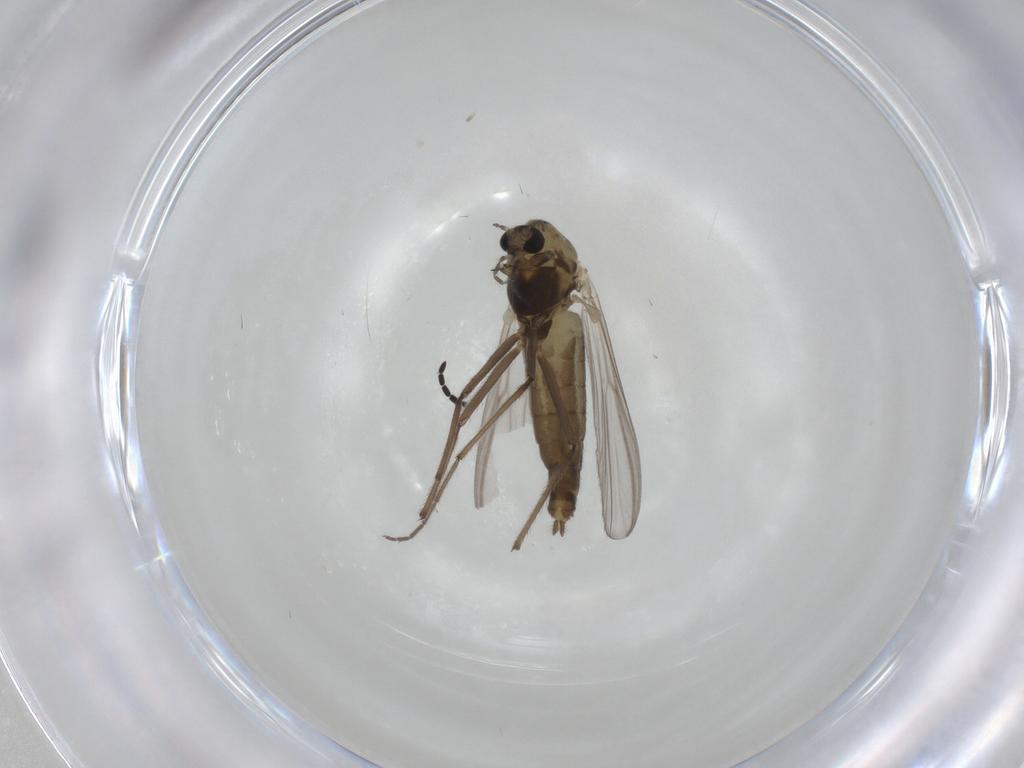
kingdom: Animalia
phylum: Arthropoda
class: Insecta
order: Diptera
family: Chironomidae
